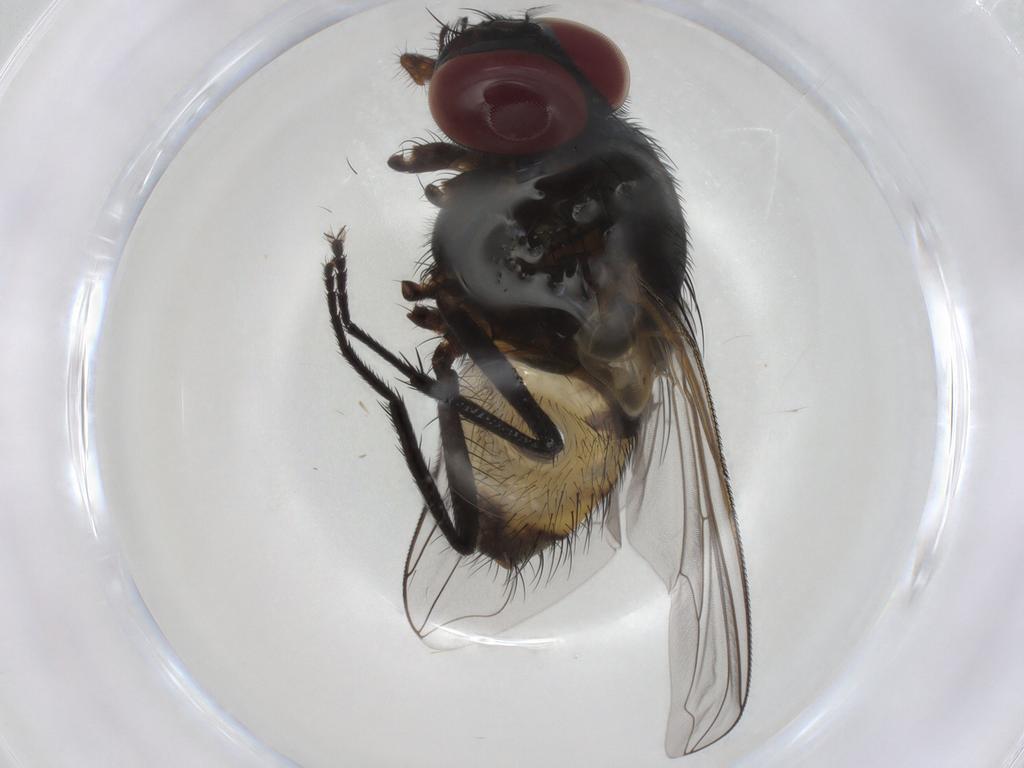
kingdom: Animalia
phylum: Arthropoda
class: Insecta
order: Diptera
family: Muscidae
